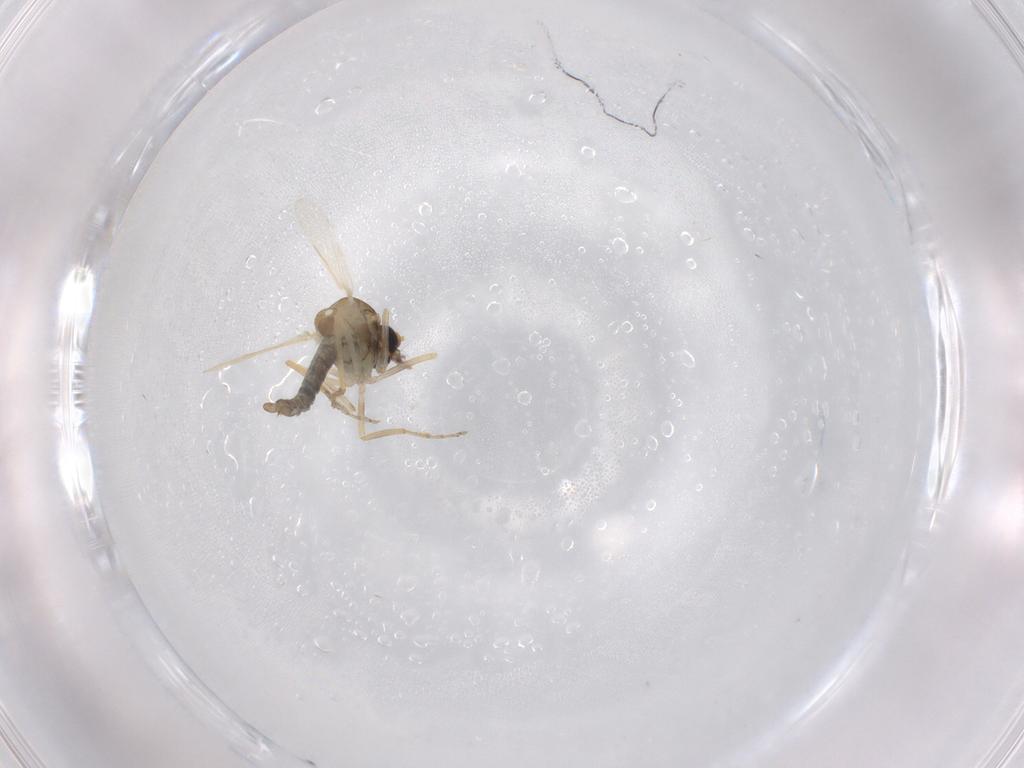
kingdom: Animalia
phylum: Arthropoda
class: Insecta
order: Diptera
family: Ceratopogonidae
